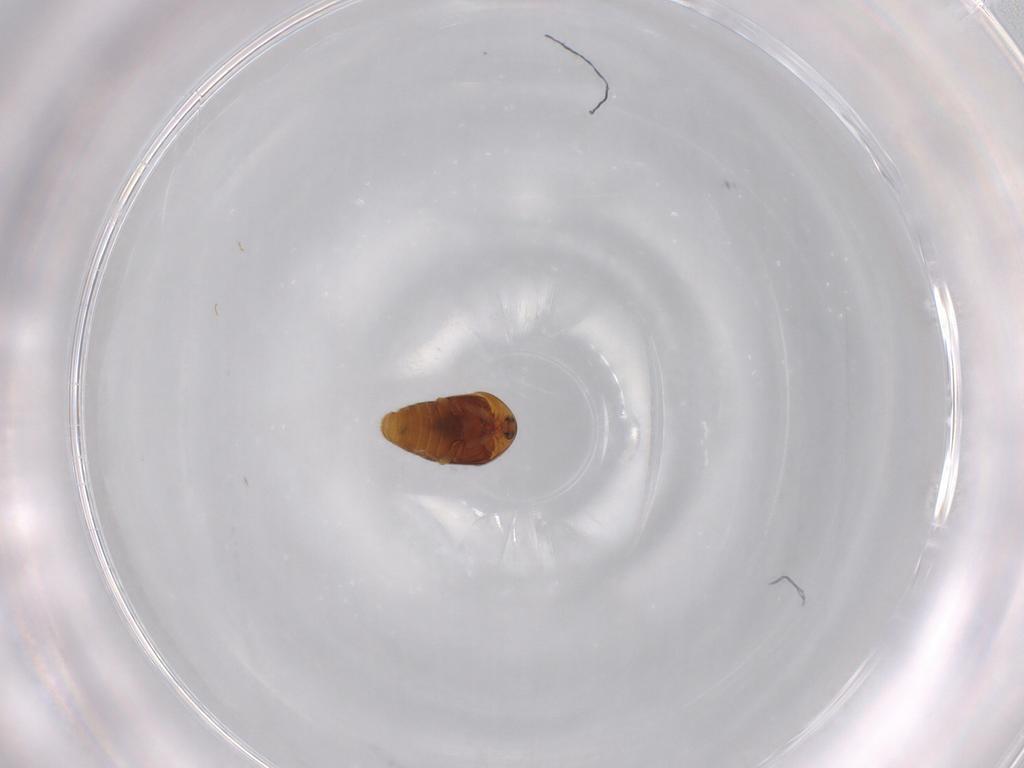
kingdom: Animalia
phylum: Arthropoda
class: Insecta
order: Coleoptera
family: Corylophidae
